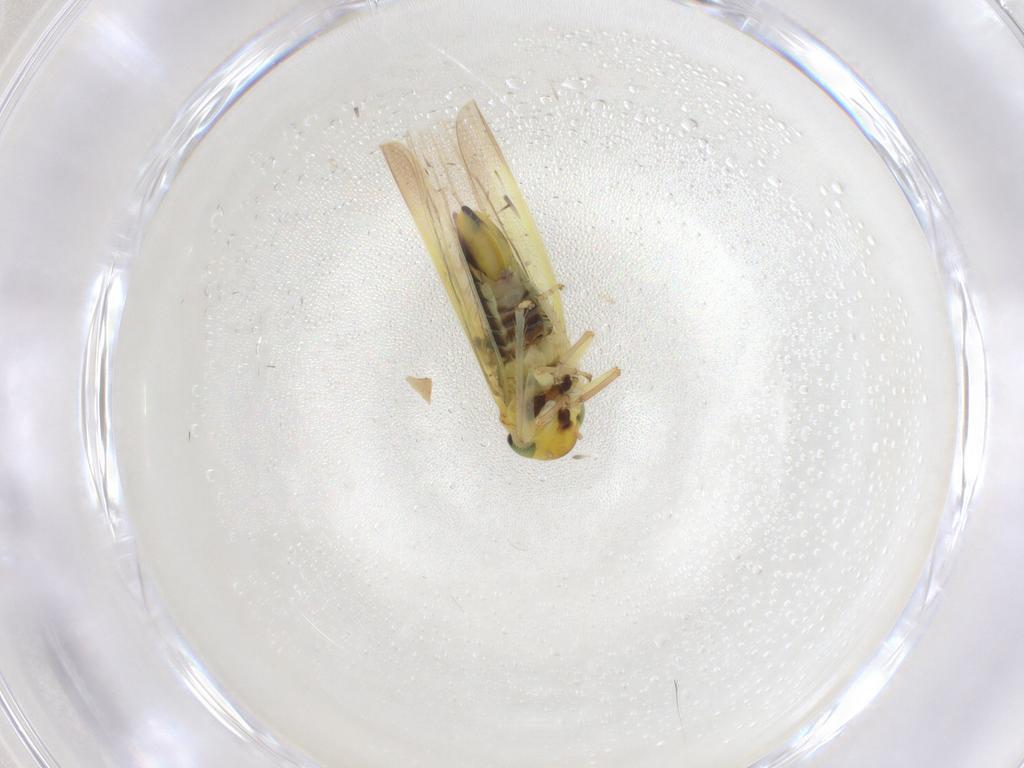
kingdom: Animalia
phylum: Arthropoda
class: Insecta
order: Hemiptera
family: Cicadellidae
